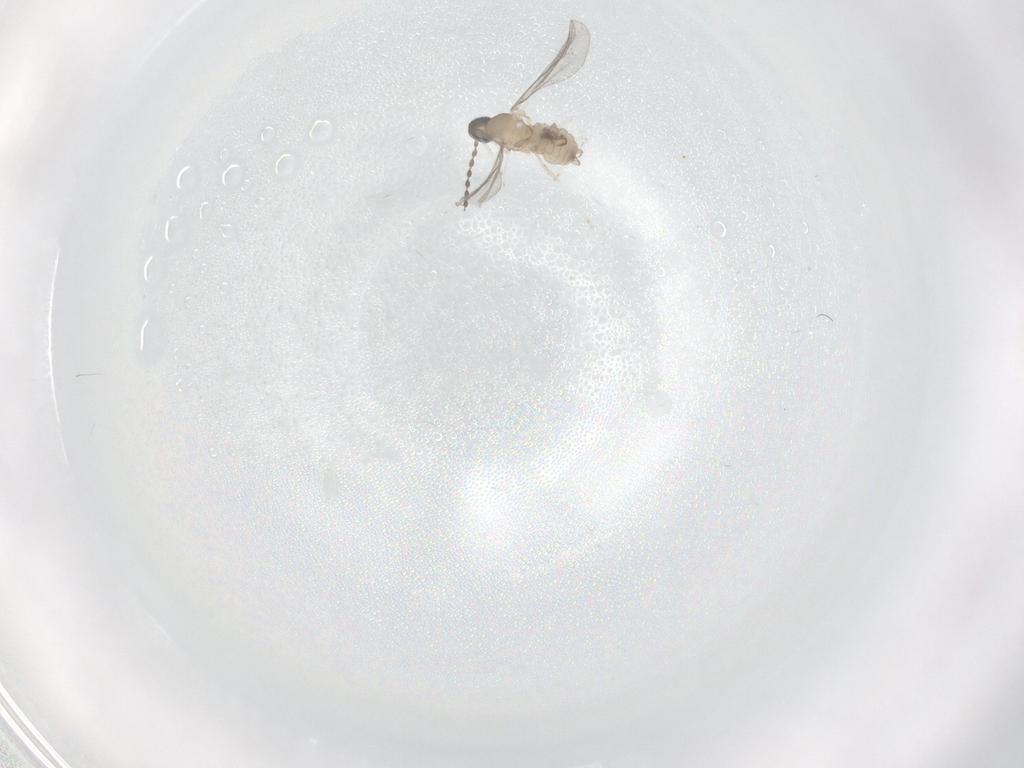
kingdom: Animalia
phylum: Arthropoda
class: Insecta
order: Diptera
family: Cecidomyiidae
